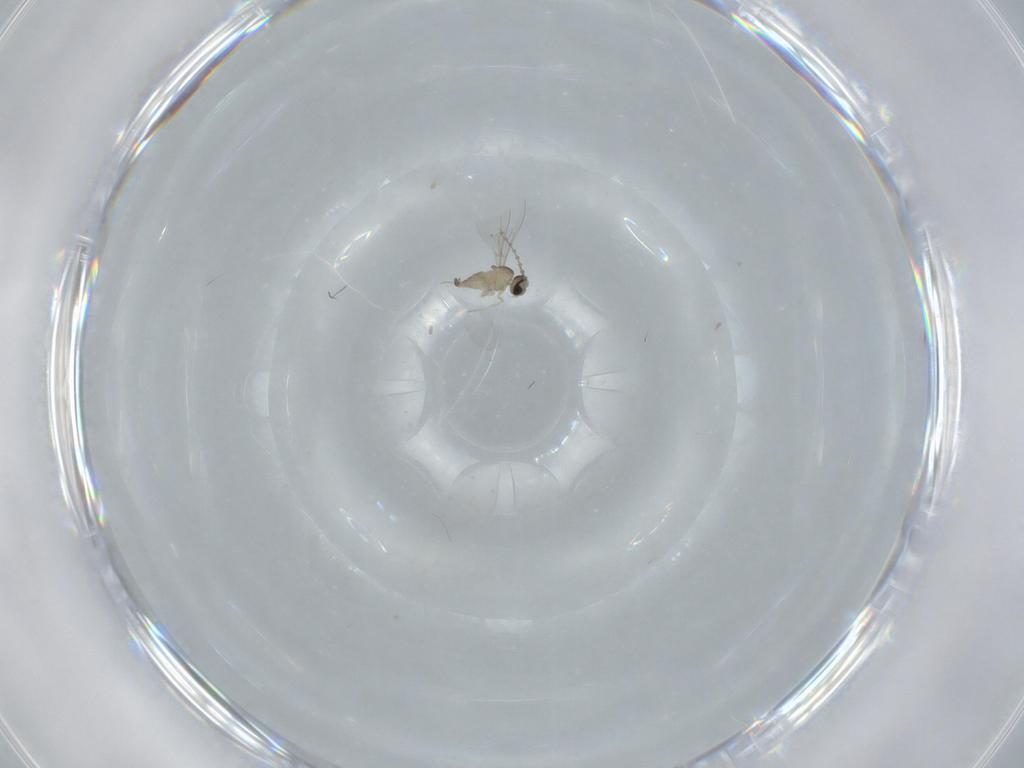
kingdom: Animalia
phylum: Arthropoda
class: Insecta
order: Diptera
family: Cecidomyiidae
